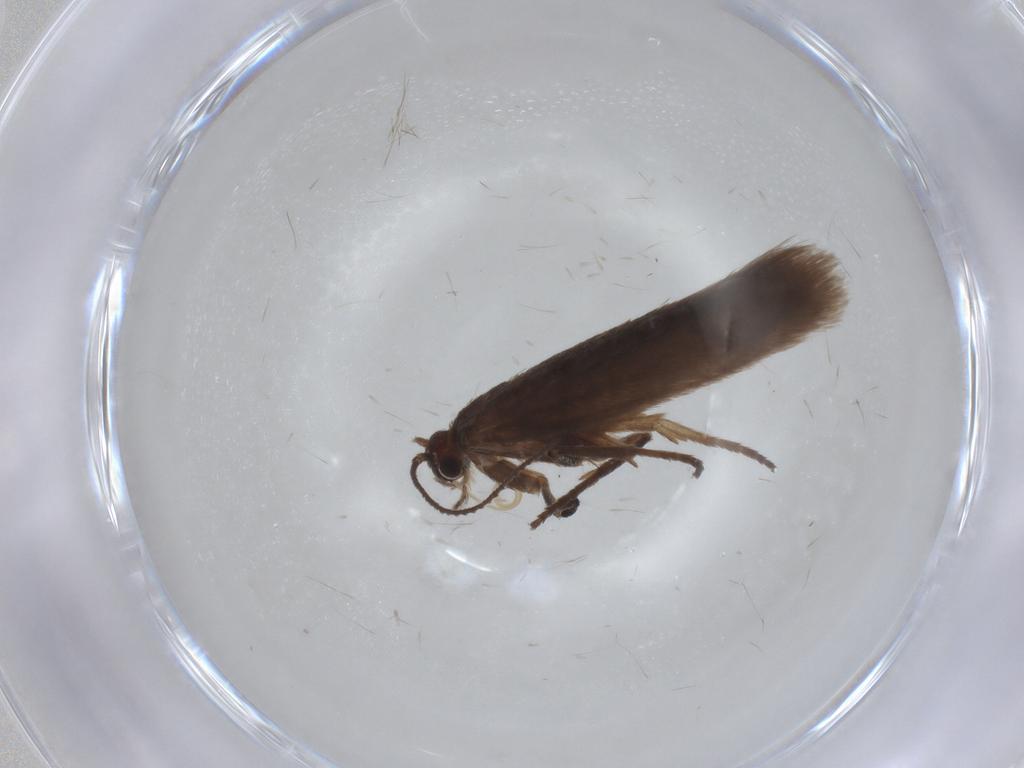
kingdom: Animalia
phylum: Arthropoda
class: Insecta
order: Lepidoptera
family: Limacodidae
